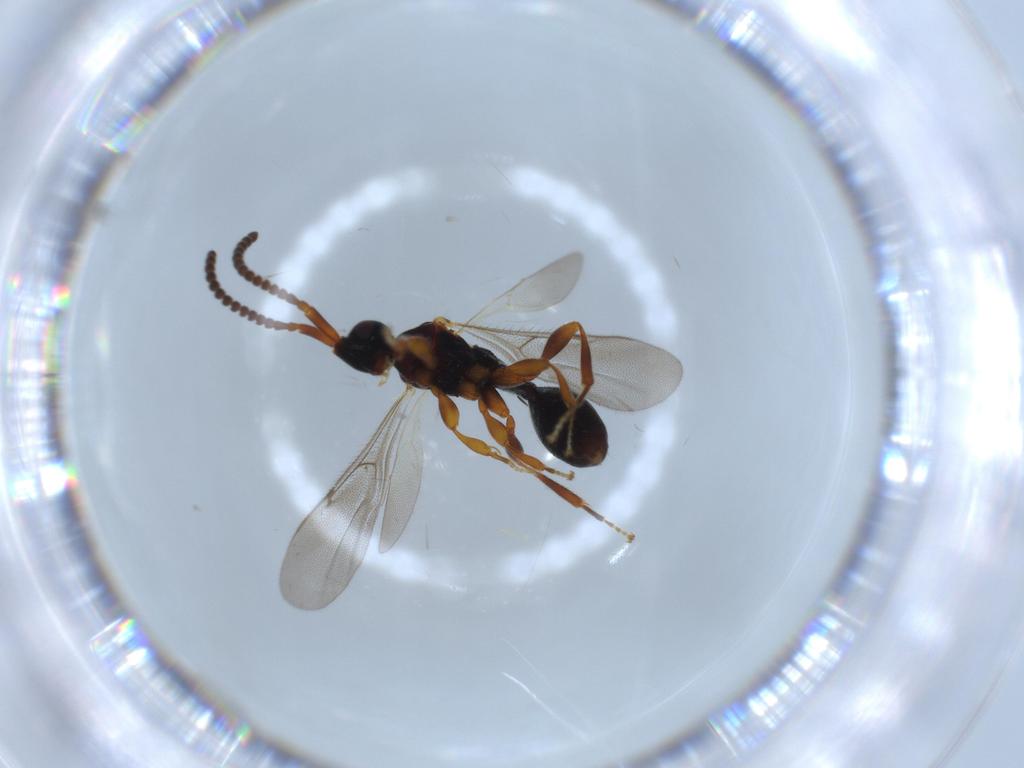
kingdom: Animalia
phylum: Arthropoda
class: Insecta
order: Hymenoptera
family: Diapriidae
